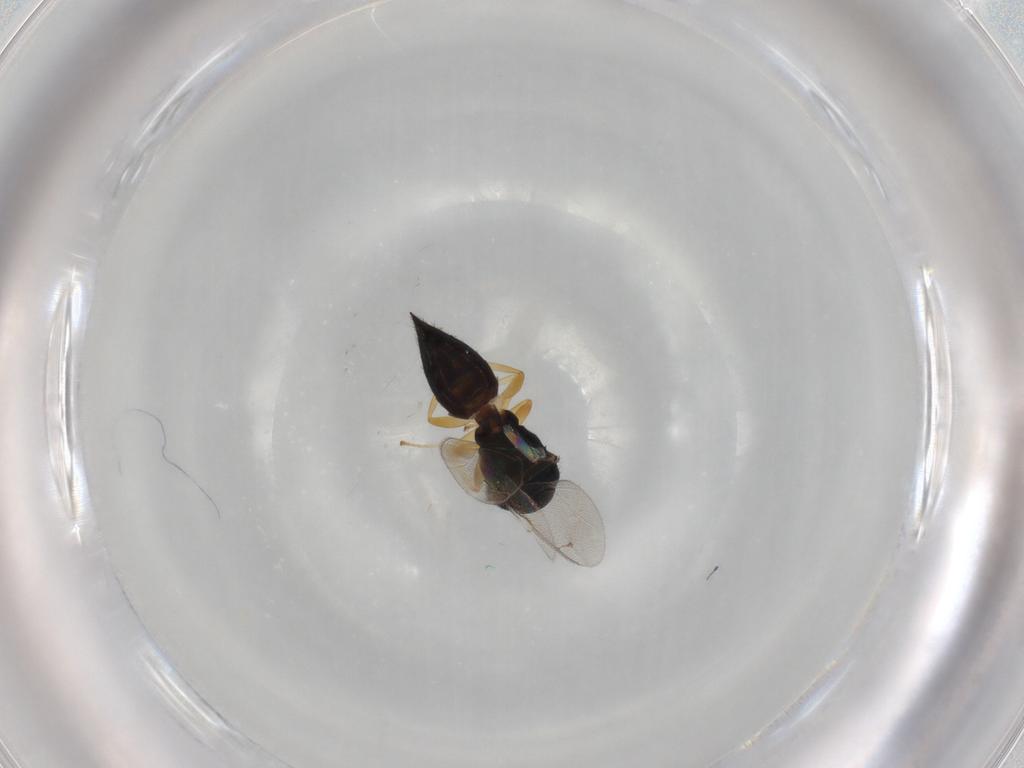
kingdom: Animalia
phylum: Arthropoda
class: Insecta
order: Hymenoptera
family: Pteromalidae
